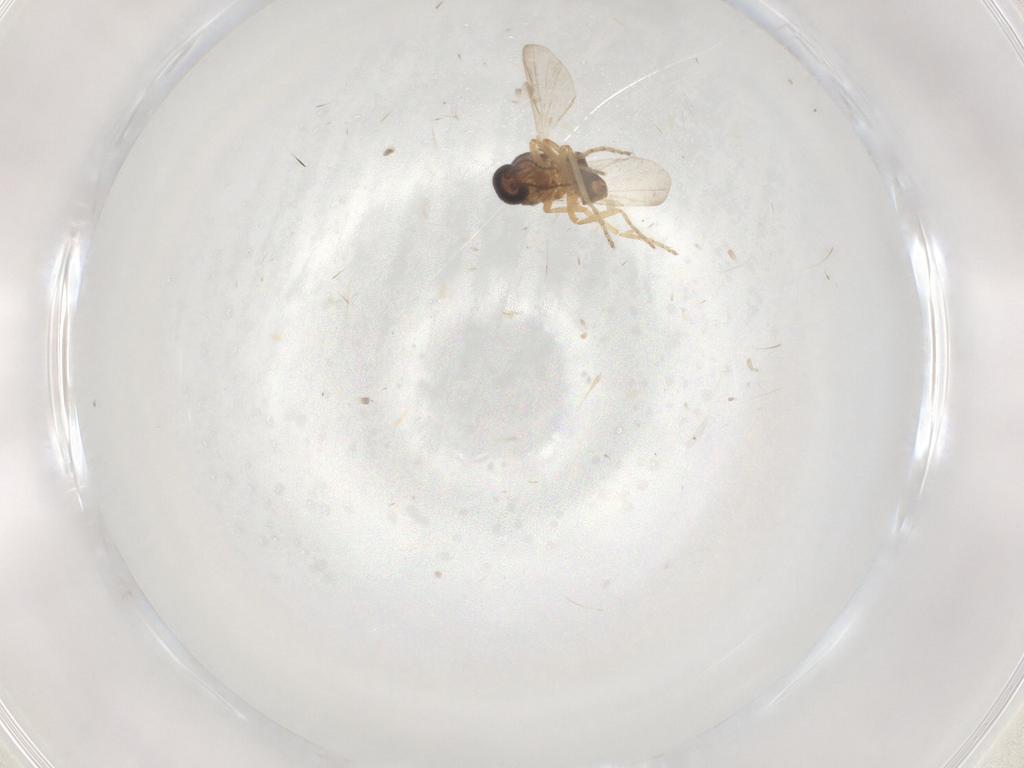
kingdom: Animalia
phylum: Arthropoda
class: Insecta
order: Diptera
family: Ceratopogonidae
